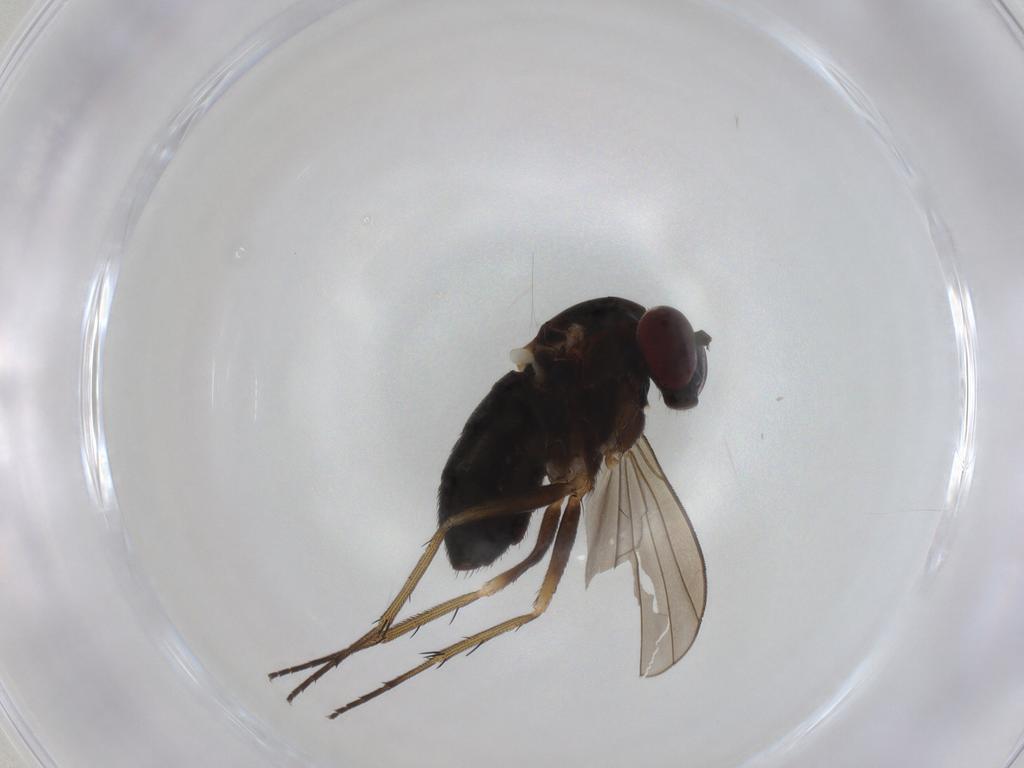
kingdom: Animalia
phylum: Arthropoda
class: Insecta
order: Diptera
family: Dolichopodidae
